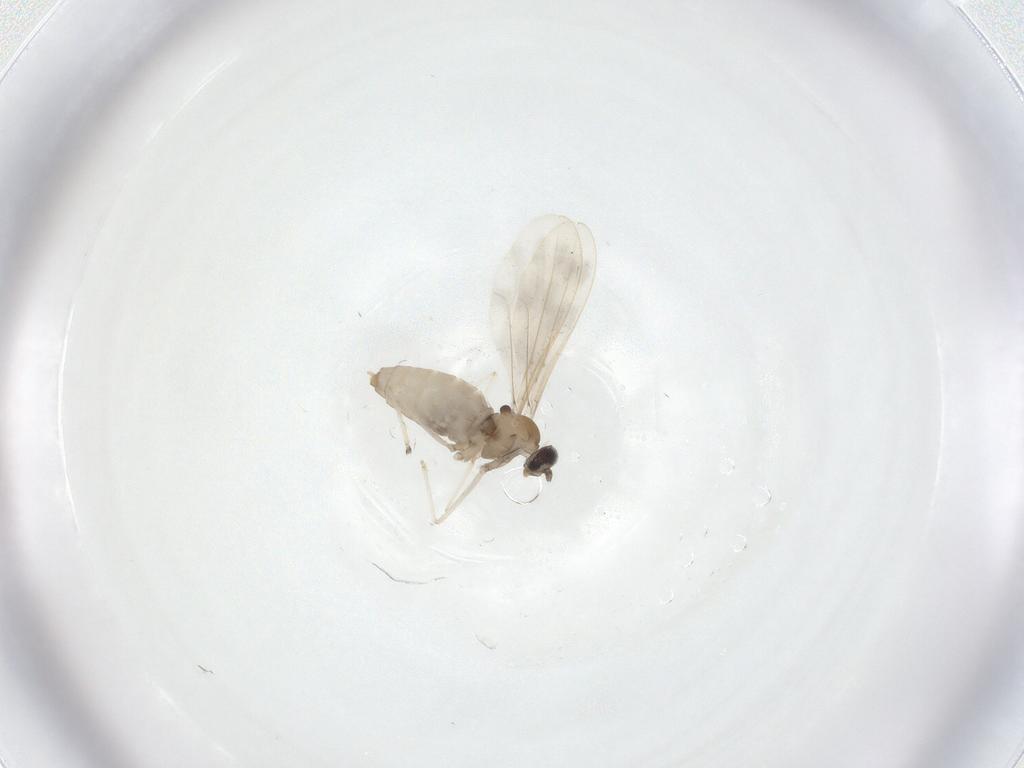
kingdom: Animalia
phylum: Arthropoda
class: Insecta
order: Diptera
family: Cecidomyiidae
